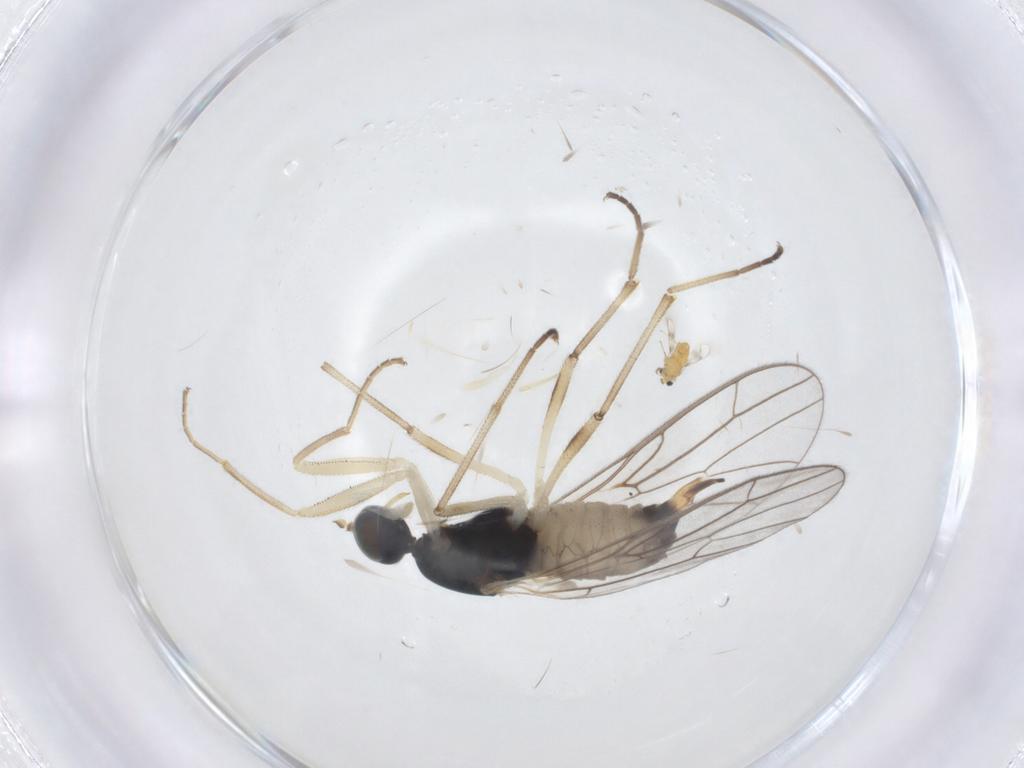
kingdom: Animalia
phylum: Arthropoda
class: Insecta
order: Diptera
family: Empididae
